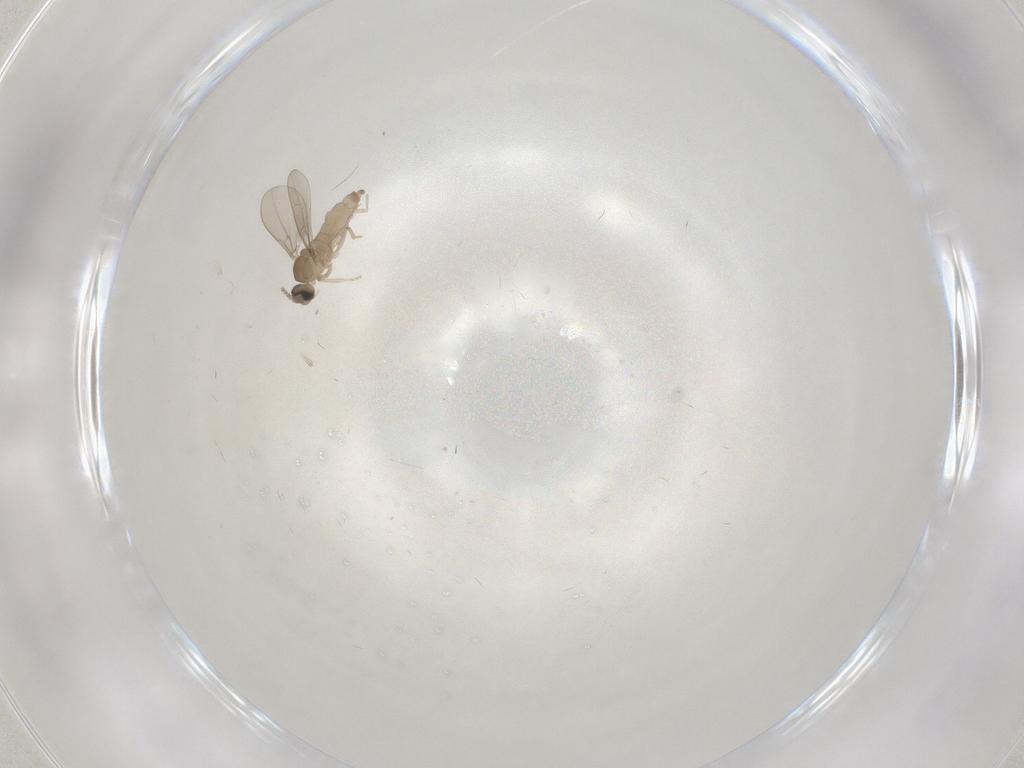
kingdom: Animalia
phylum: Arthropoda
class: Insecta
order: Diptera
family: Cecidomyiidae
